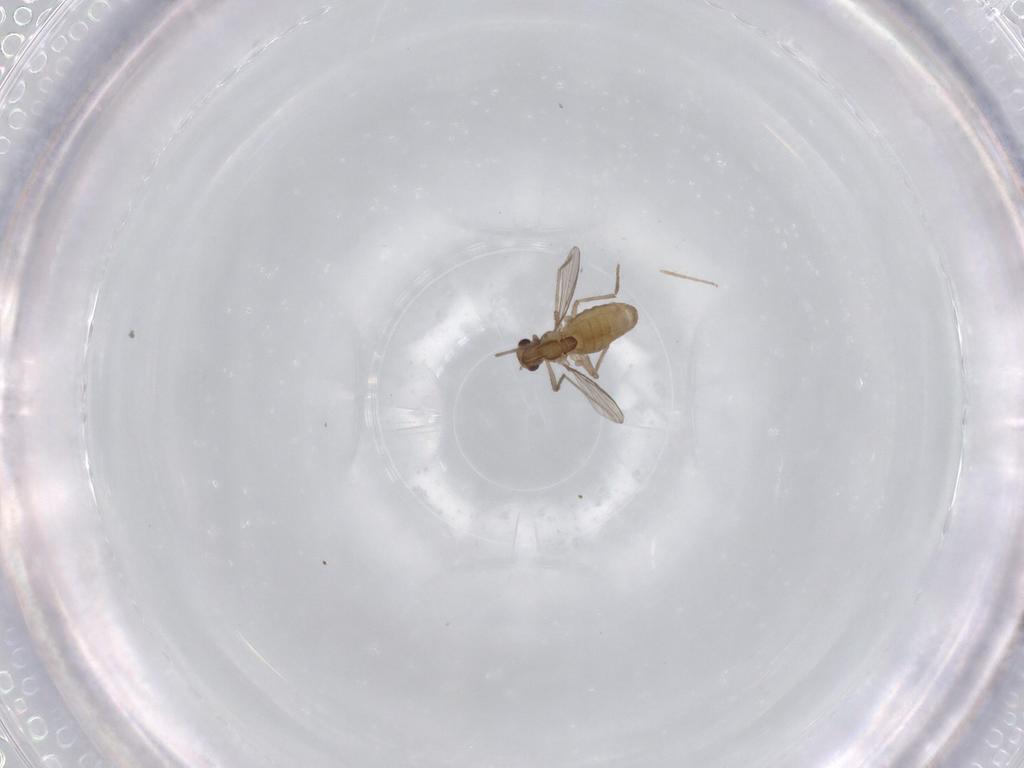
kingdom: Animalia
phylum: Arthropoda
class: Insecta
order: Diptera
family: Chironomidae
